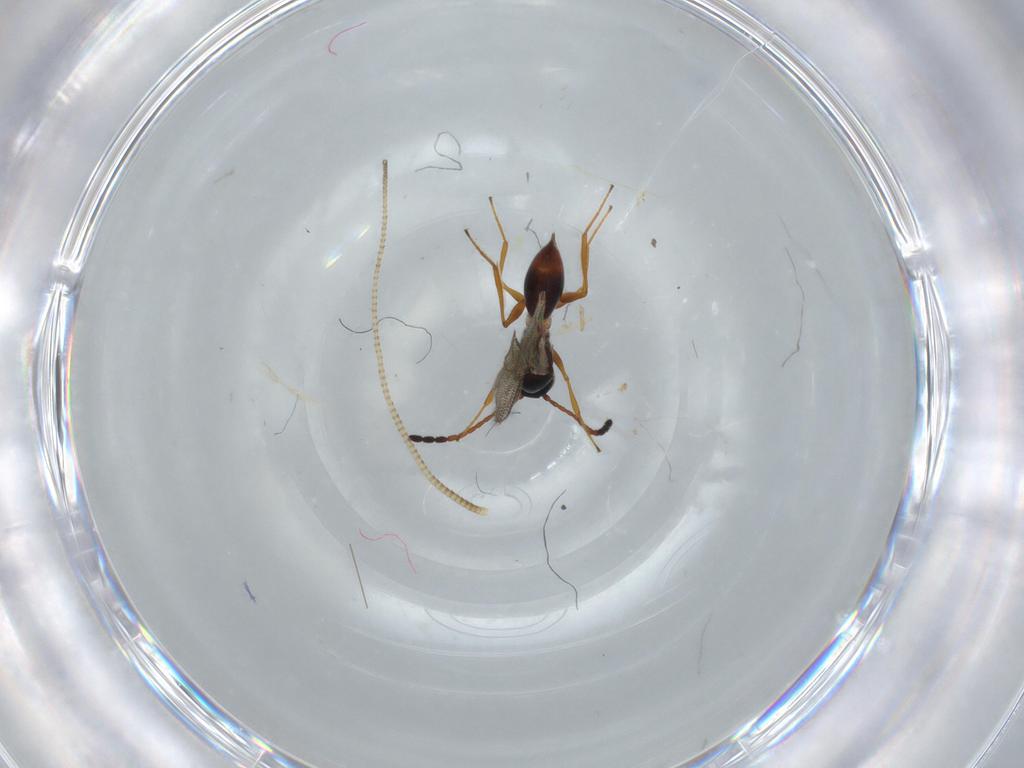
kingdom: Animalia
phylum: Arthropoda
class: Insecta
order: Hymenoptera
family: Figitidae
